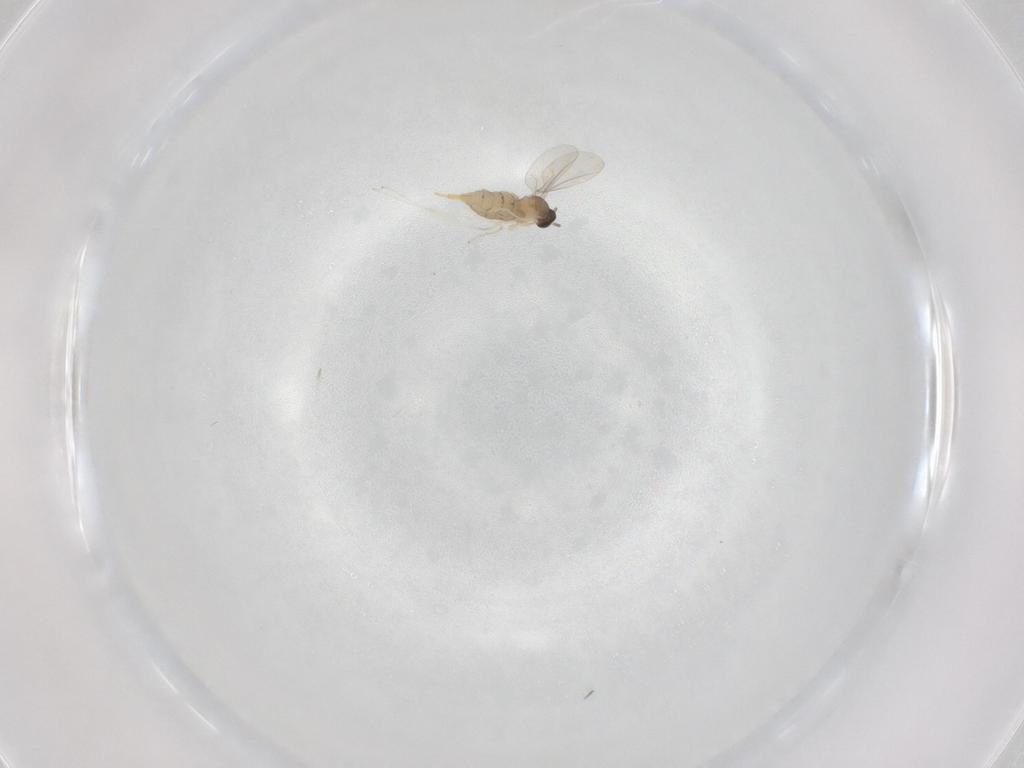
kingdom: Animalia
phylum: Arthropoda
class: Insecta
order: Diptera
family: Cecidomyiidae
